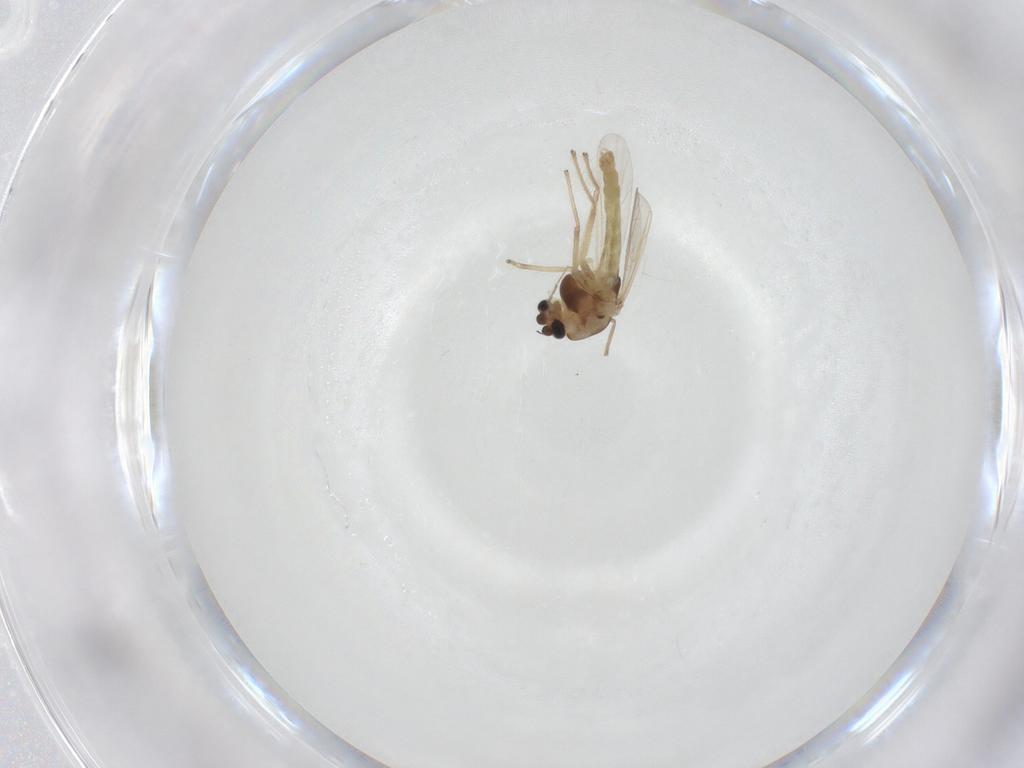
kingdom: Animalia
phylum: Arthropoda
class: Insecta
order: Diptera
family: Chironomidae
